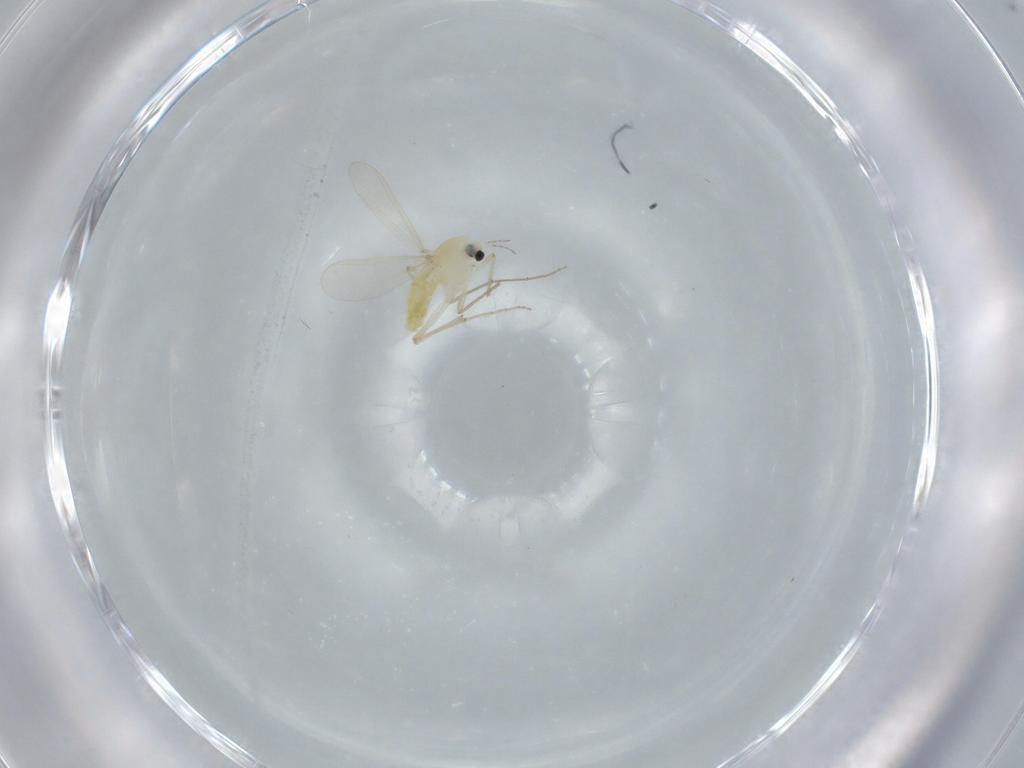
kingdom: Animalia
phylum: Arthropoda
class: Insecta
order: Diptera
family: Chironomidae
